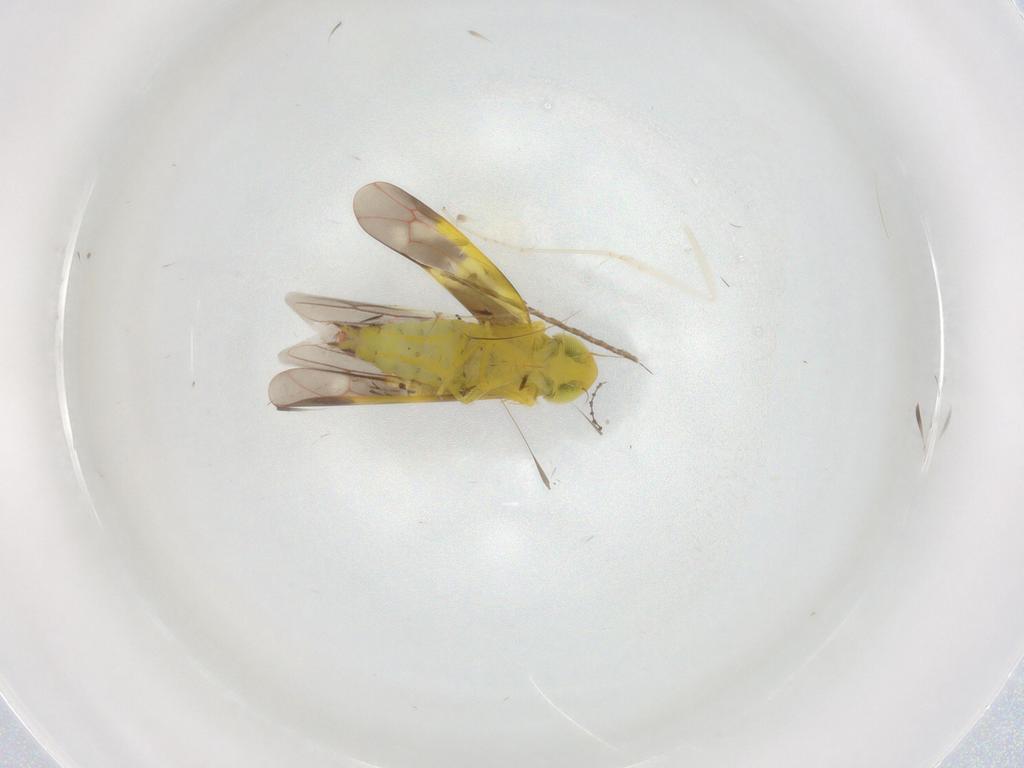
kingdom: Animalia
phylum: Arthropoda
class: Insecta
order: Hemiptera
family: Cicadellidae
